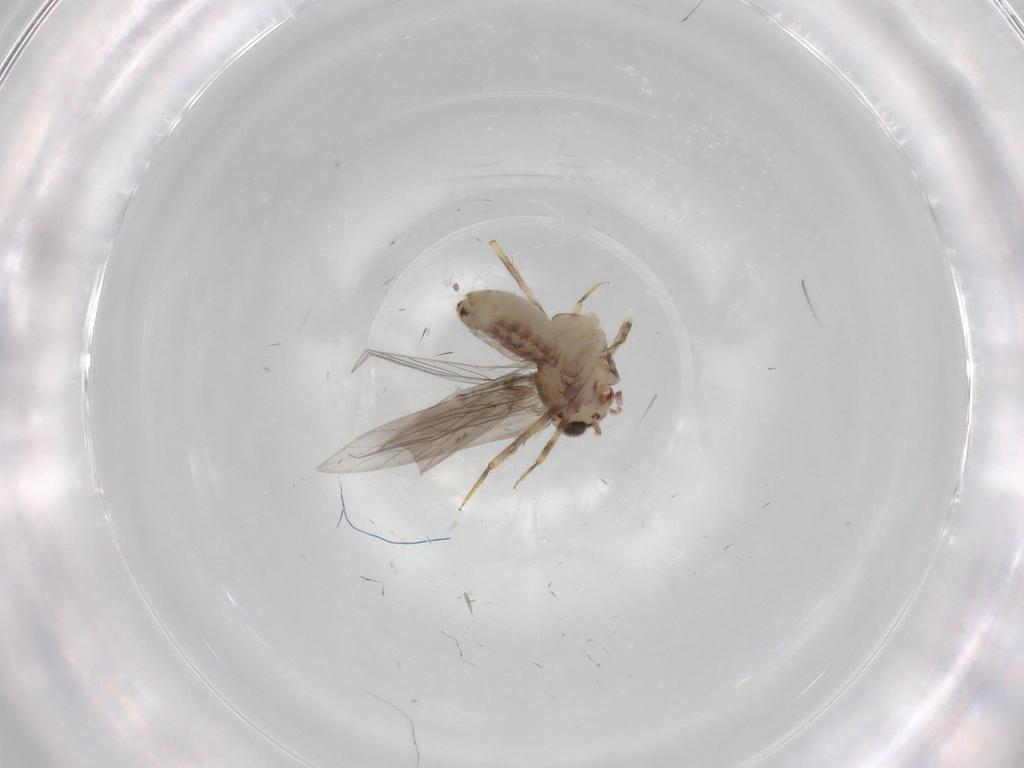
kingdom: Animalia
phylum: Arthropoda
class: Insecta
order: Psocodea
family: Lepidopsocidae
